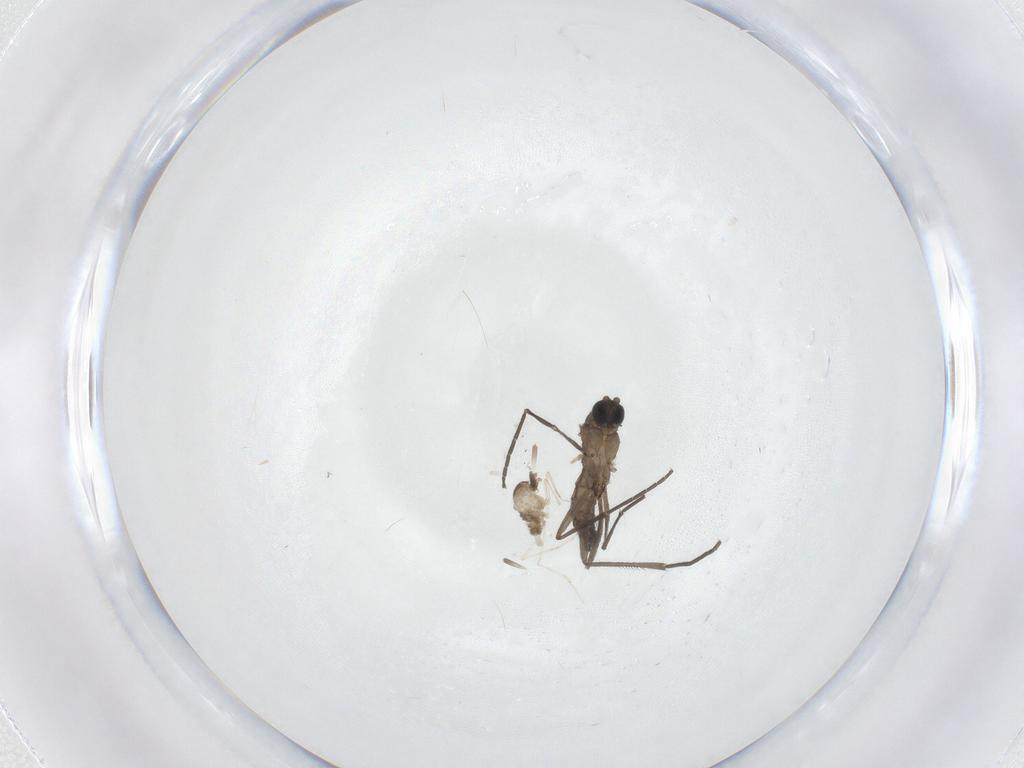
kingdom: Animalia
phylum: Arthropoda
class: Insecta
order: Diptera
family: Sciaridae
